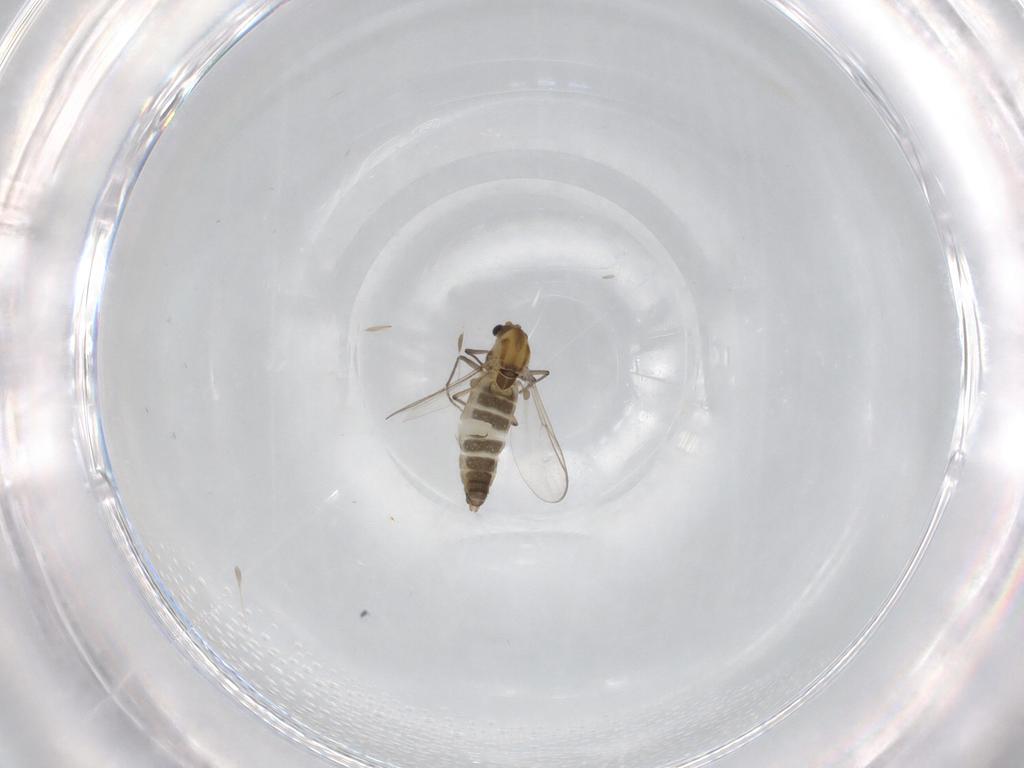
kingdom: Animalia
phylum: Arthropoda
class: Insecta
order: Diptera
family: Chironomidae
